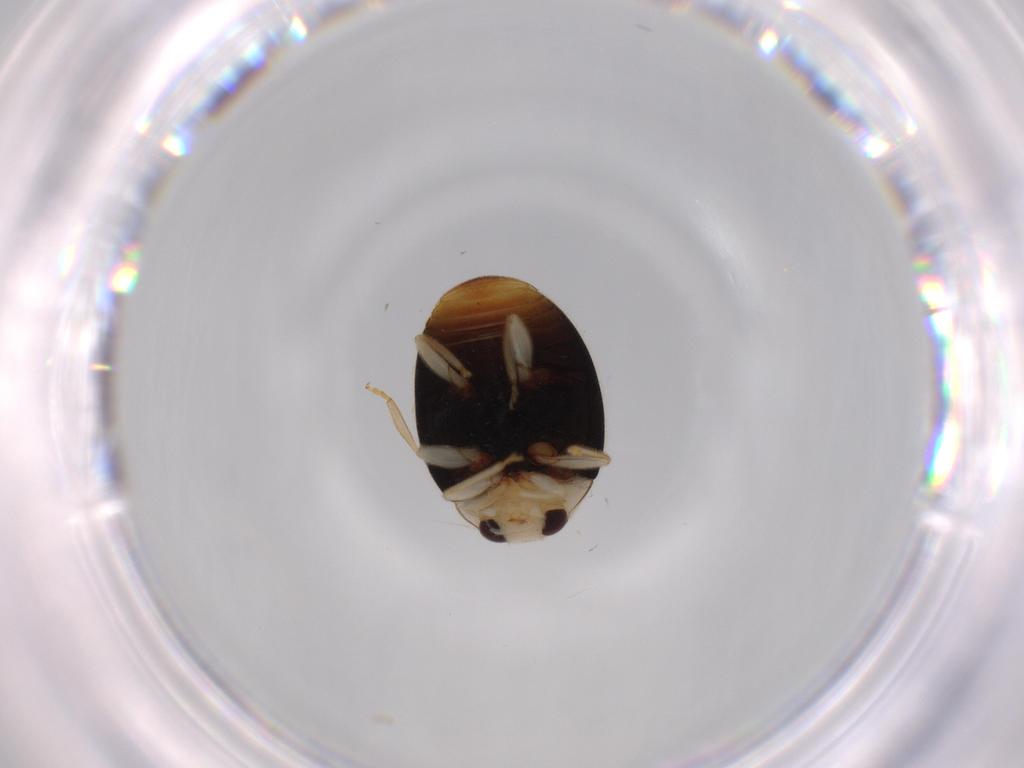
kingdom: Animalia
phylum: Arthropoda
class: Insecta
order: Coleoptera
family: Coccinellidae
